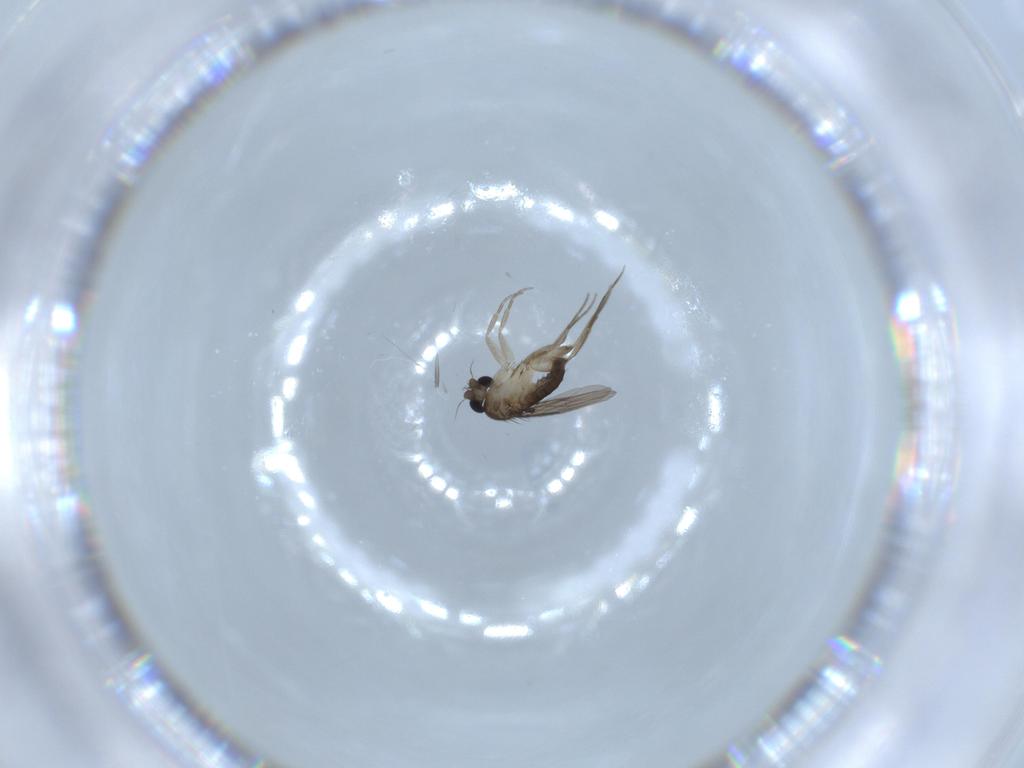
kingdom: Animalia
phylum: Arthropoda
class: Insecta
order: Diptera
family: Phoridae
